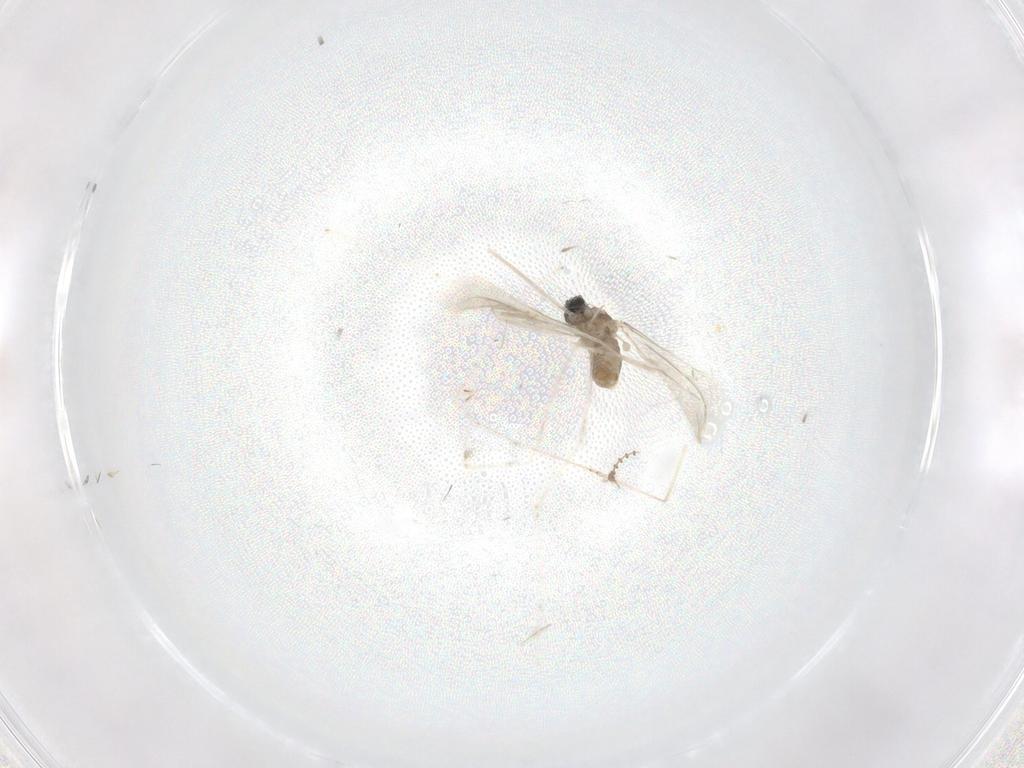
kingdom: Animalia
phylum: Arthropoda
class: Insecta
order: Diptera
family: Cecidomyiidae
